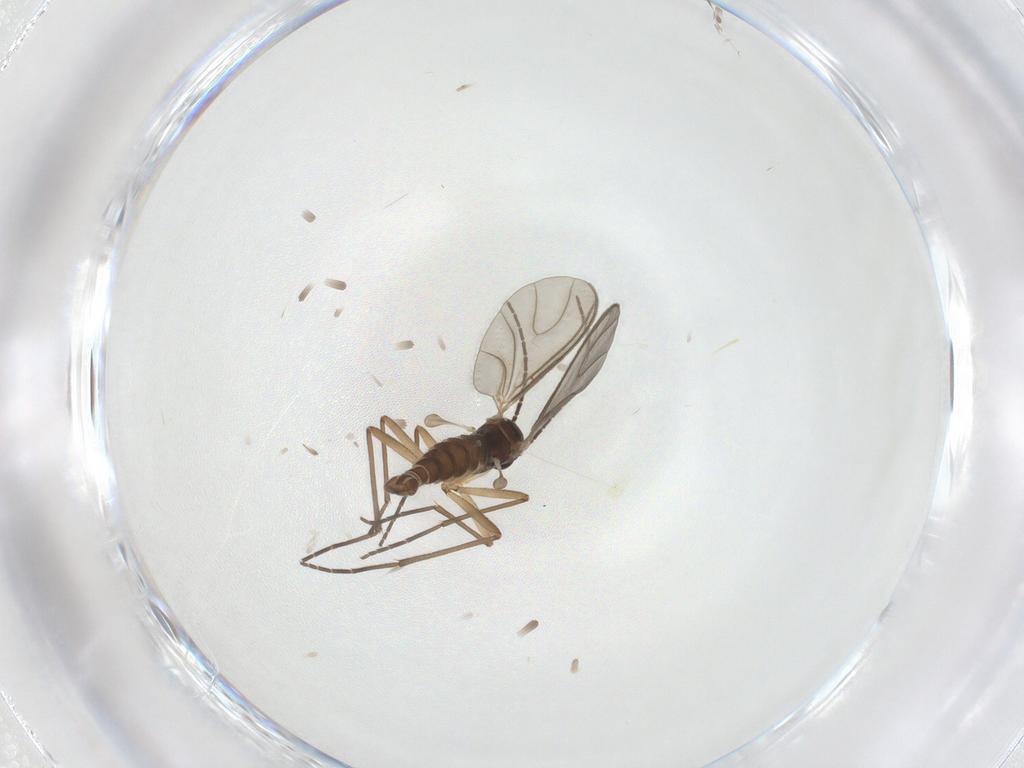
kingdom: Animalia
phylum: Arthropoda
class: Insecta
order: Diptera
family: Sciaridae
